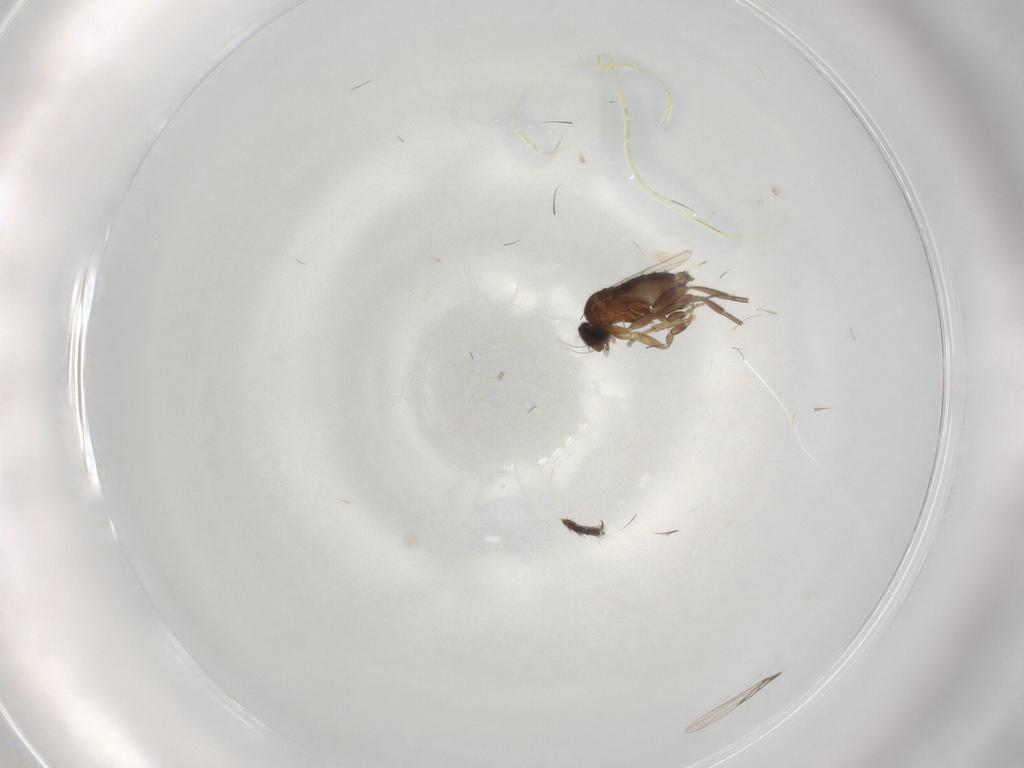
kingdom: Animalia
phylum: Arthropoda
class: Insecta
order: Diptera
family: Phoridae
